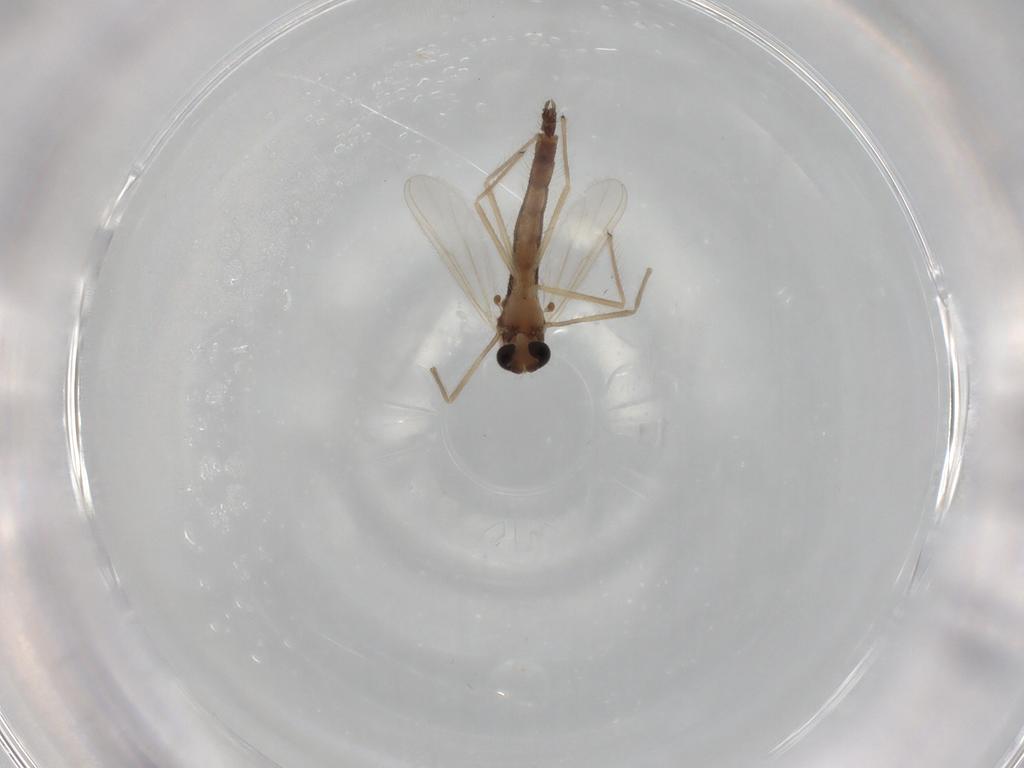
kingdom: Animalia
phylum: Arthropoda
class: Insecta
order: Diptera
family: Chironomidae
